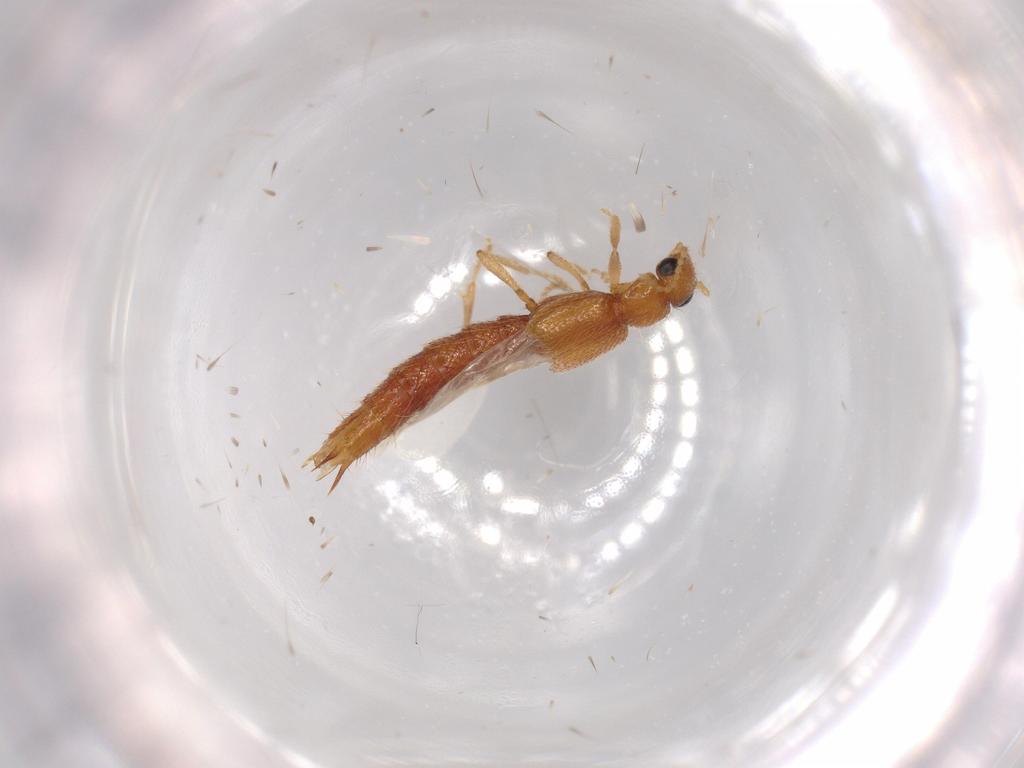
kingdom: Animalia
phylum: Arthropoda
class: Insecta
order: Coleoptera
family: Staphylinidae
